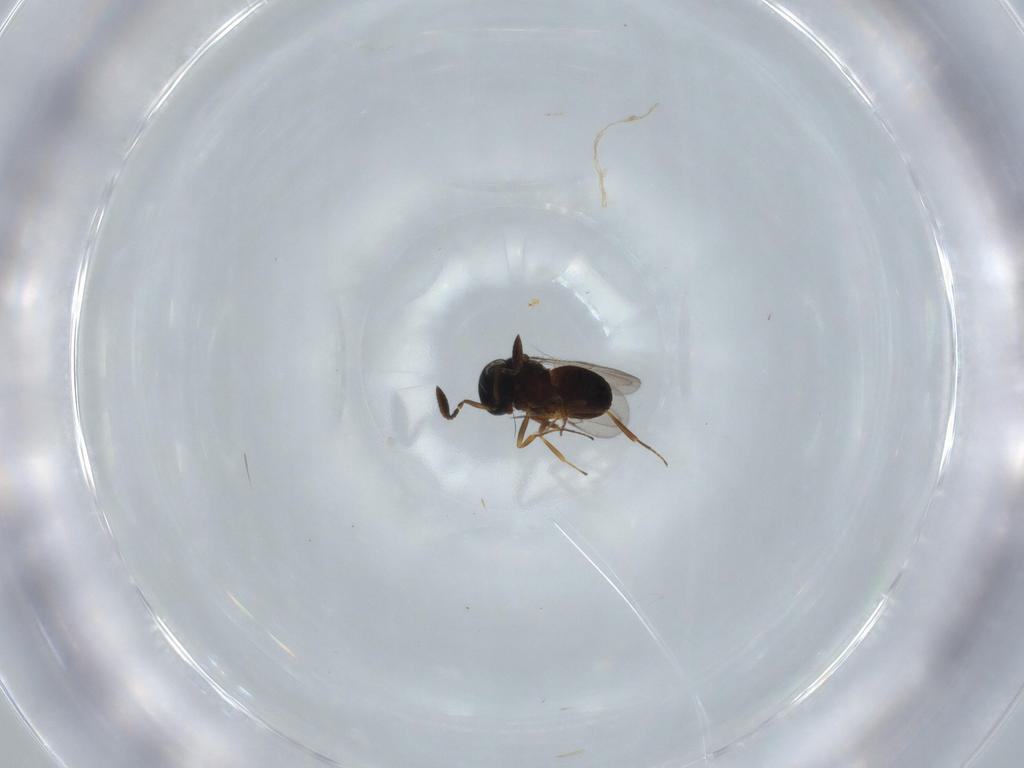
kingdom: Animalia
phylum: Arthropoda
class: Insecta
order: Coleoptera
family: Curculionidae
